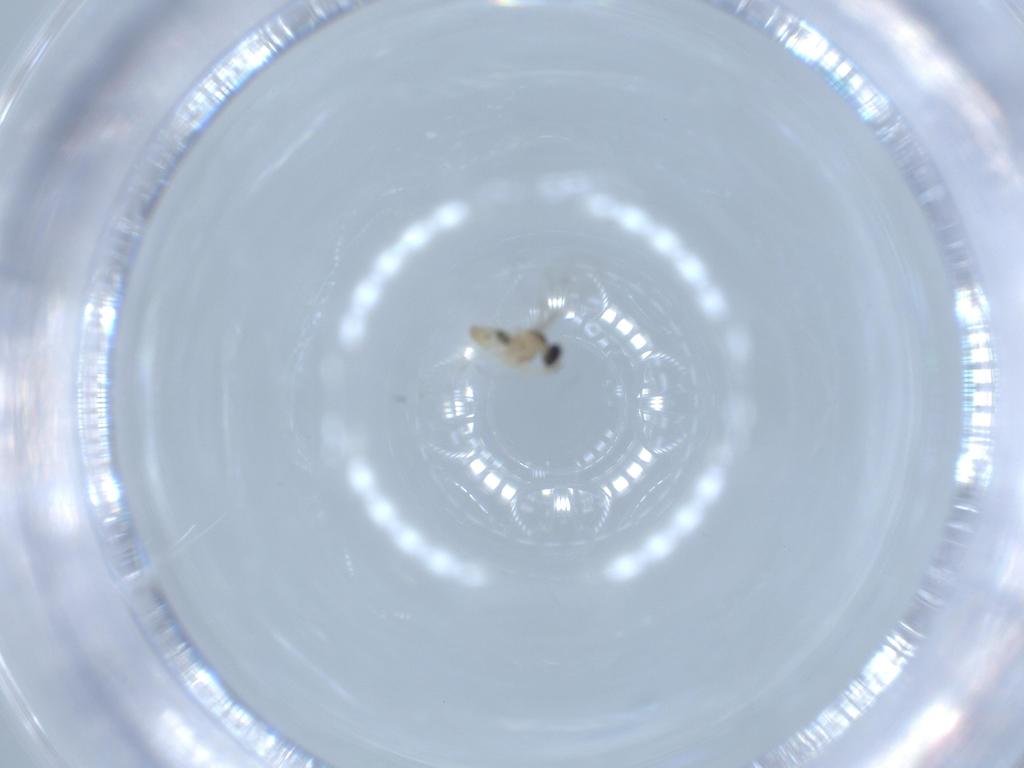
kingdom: Animalia
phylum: Arthropoda
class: Insecta
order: Diptera
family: Cecidomyiidae
